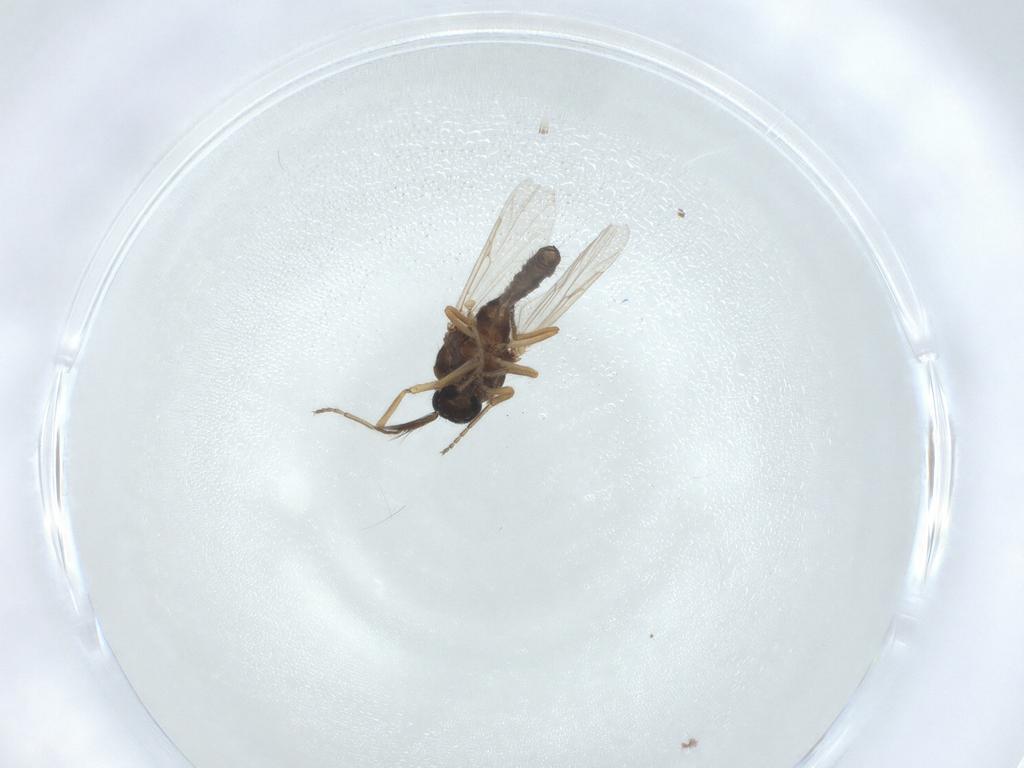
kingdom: Animalia
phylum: Arthropoda
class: Insecta
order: Diptera
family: Ceratopogonidae
